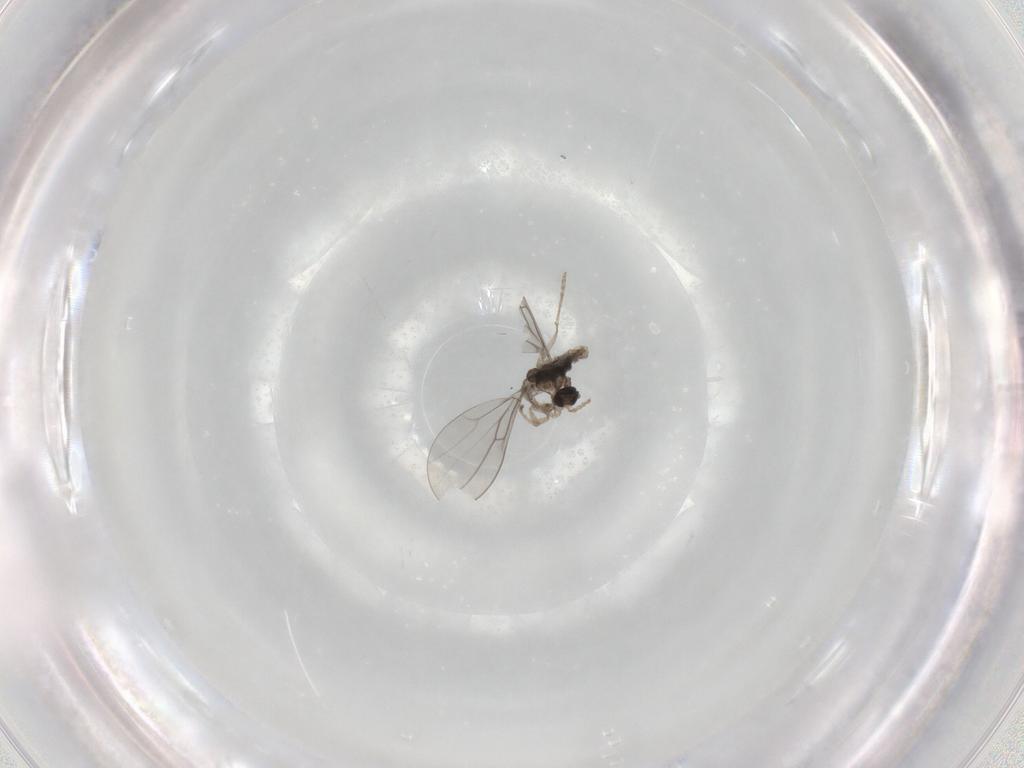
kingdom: Animalia
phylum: Arthropoda
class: Insecta
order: Diptera
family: Cecidomyiidae
